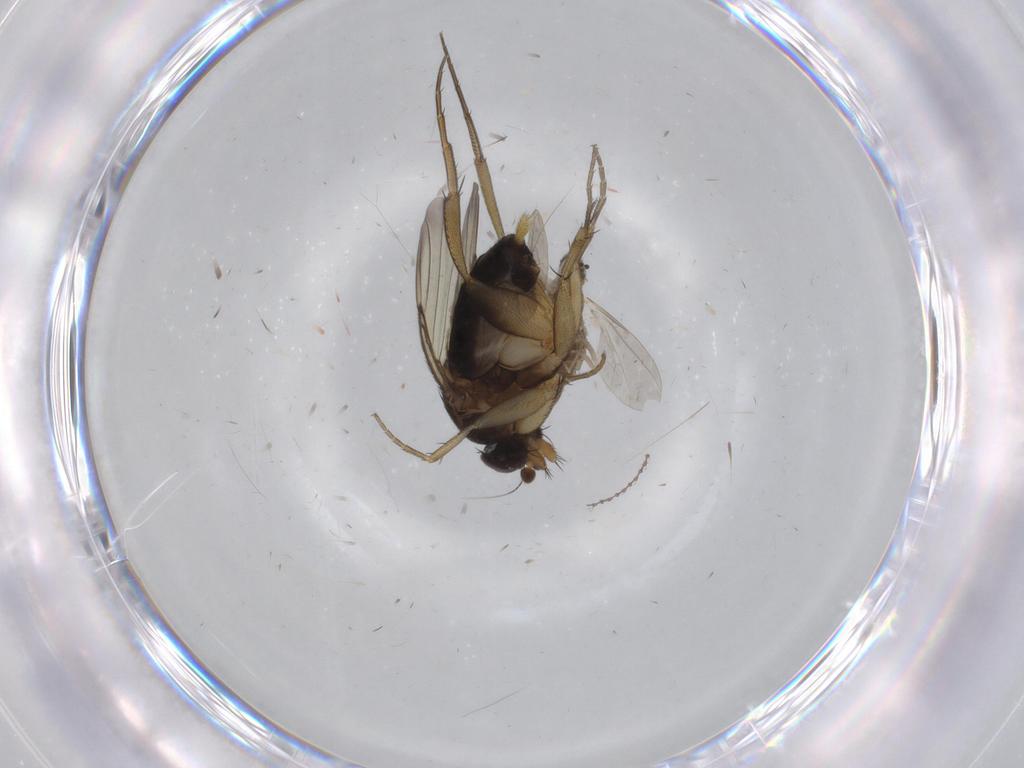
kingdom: Animalia
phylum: Arthropoda
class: Insecta
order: Diptera
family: Phoridae
